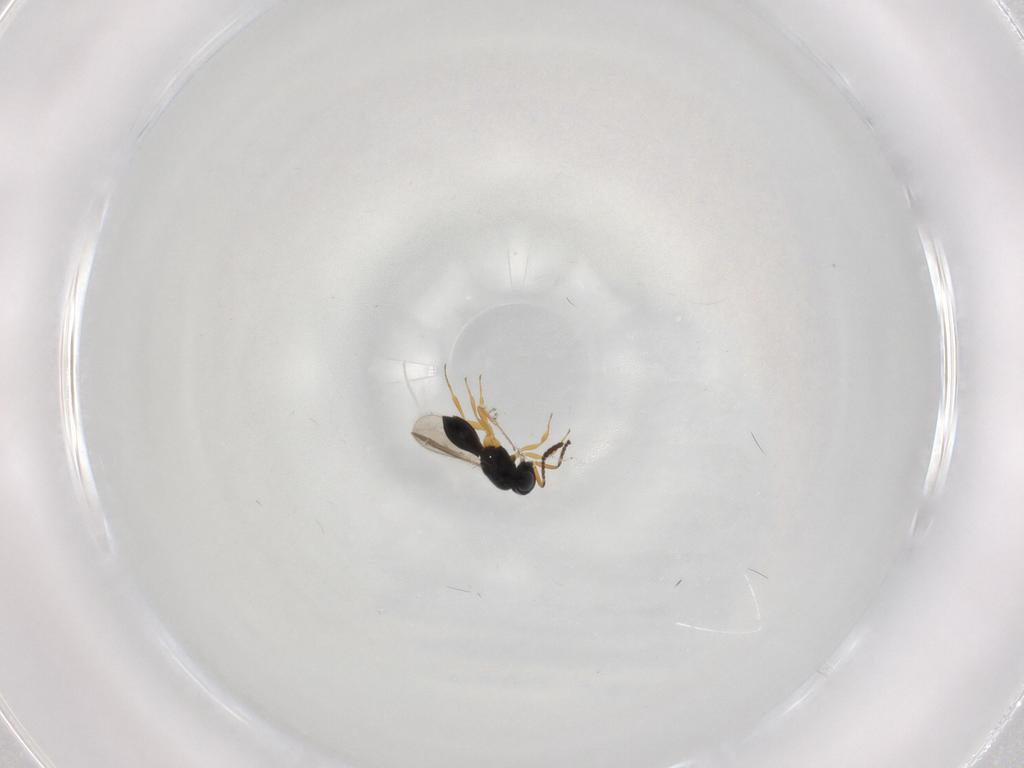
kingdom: Animalia
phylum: Arthropoda
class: Insecta
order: Hymenoptera
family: Scelionidae
